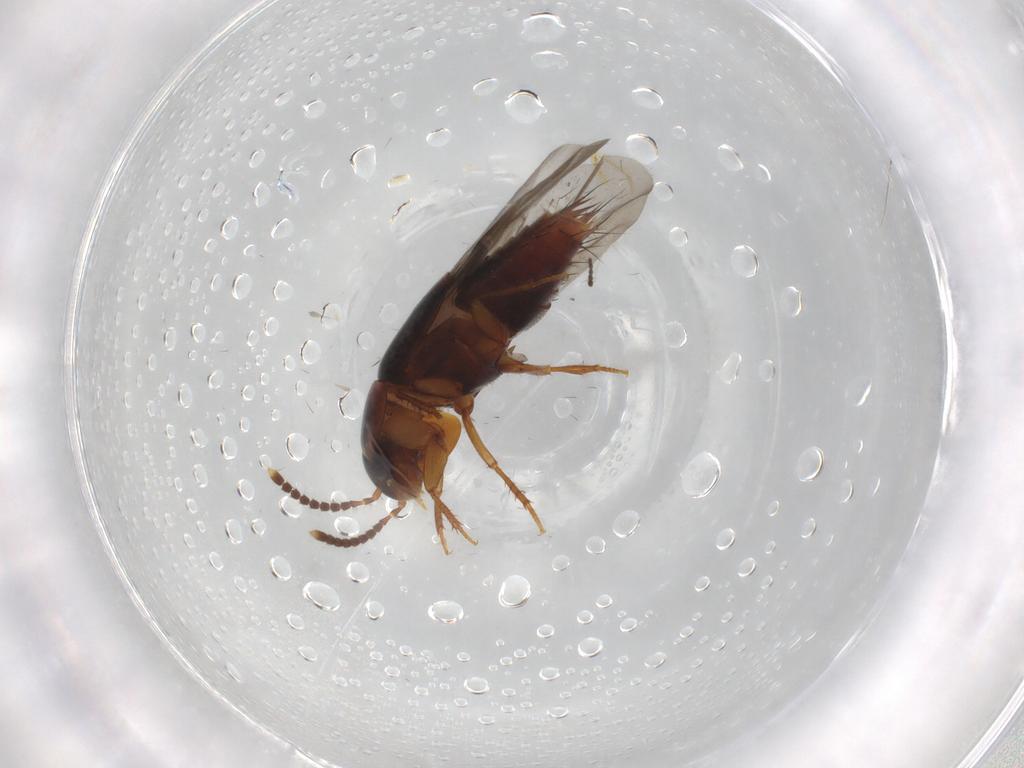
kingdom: Animalia
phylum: Arthropoda
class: Insecta
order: Coleoptera
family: Staphylinidae
